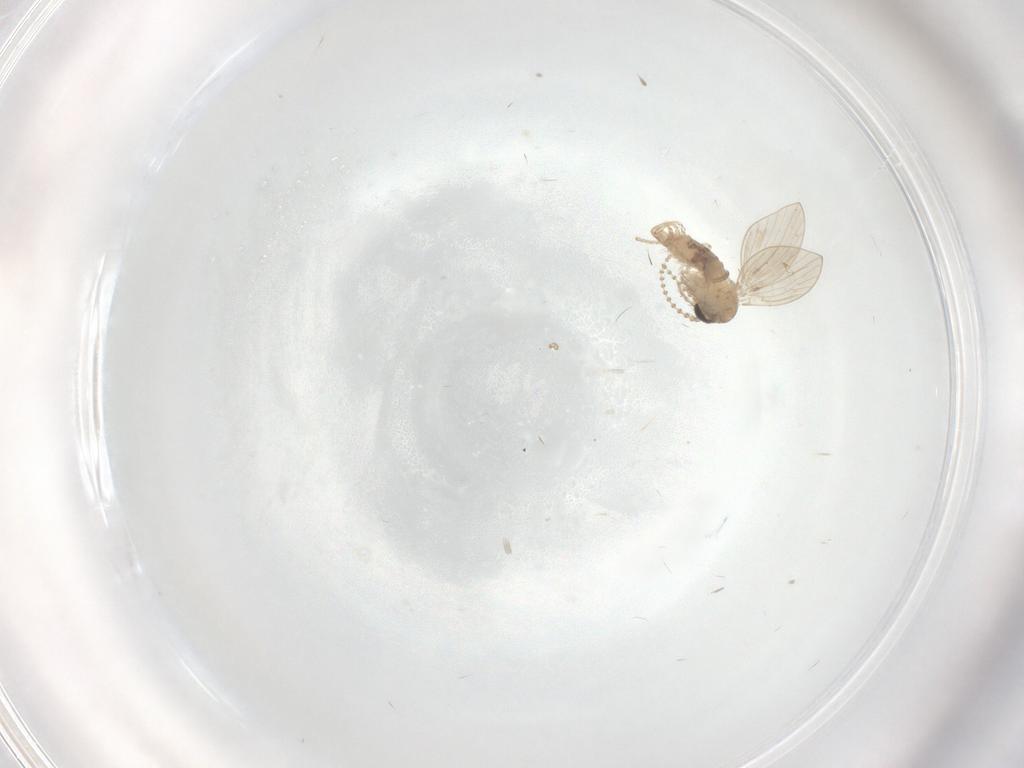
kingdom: Animalia
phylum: Arthropoda
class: Insecta
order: Diptera
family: Psychodidae
